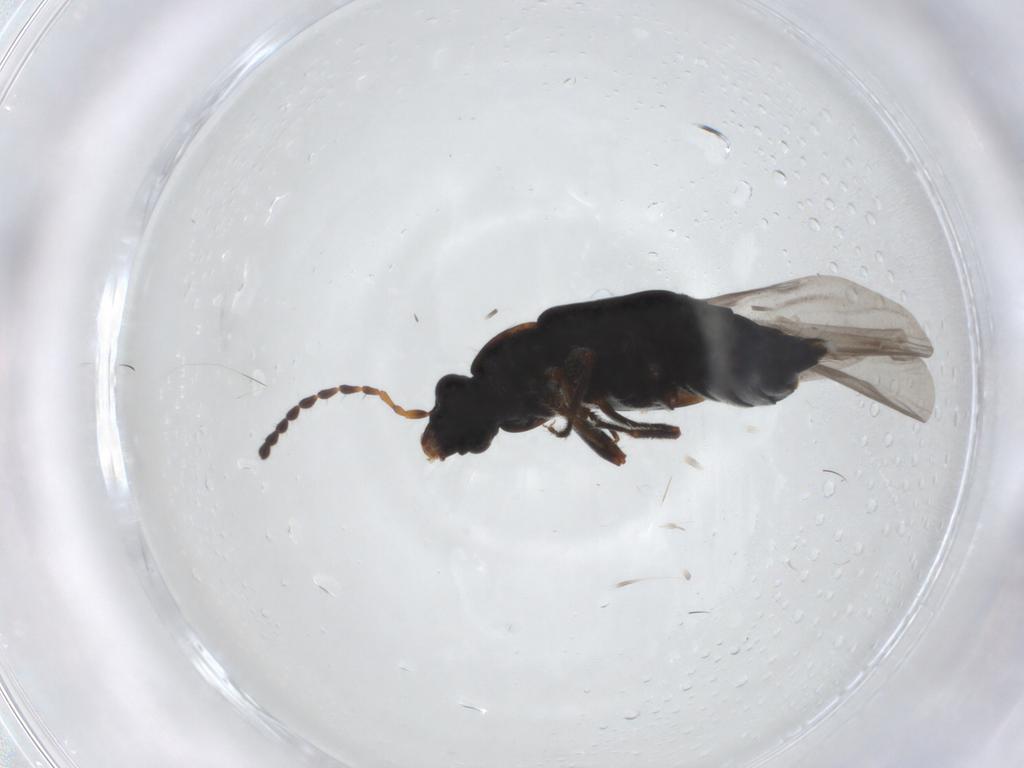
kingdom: Animalia
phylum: Arthropoda
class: Insecta
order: Coleoptera
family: Staphylinidae
